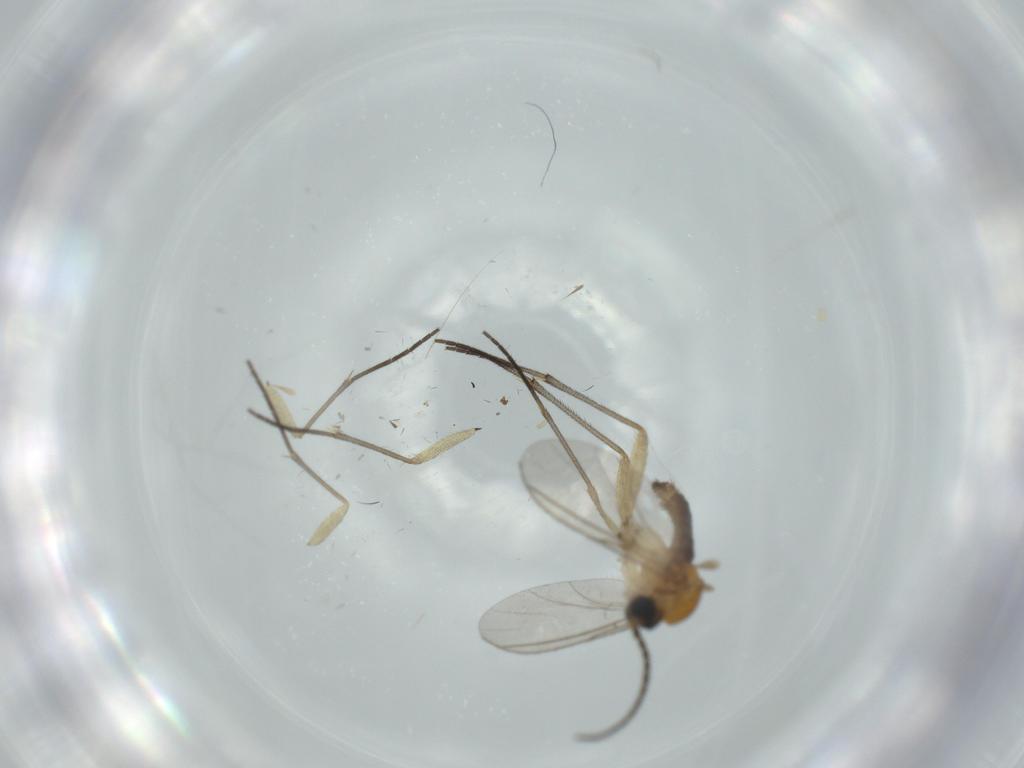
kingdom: Animalia
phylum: Arthropoda
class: Insecta
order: Diptera
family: Sciaridae
